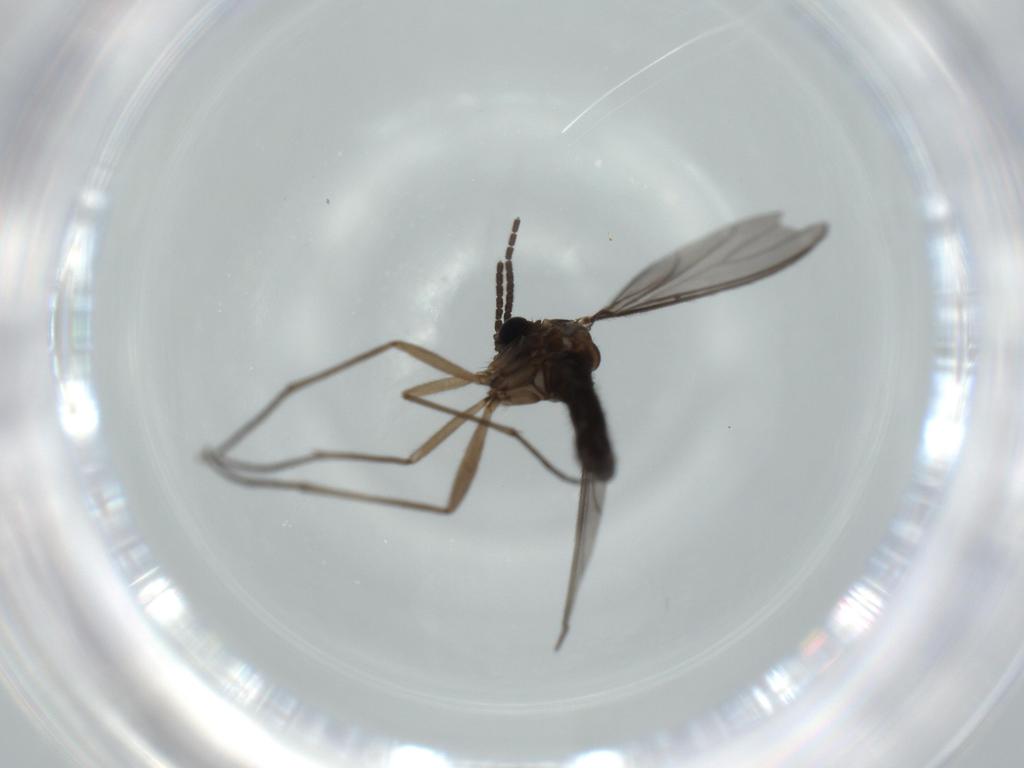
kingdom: Animalia
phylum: Arthropoda
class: Insecta
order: Diptera
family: Sciaridae
